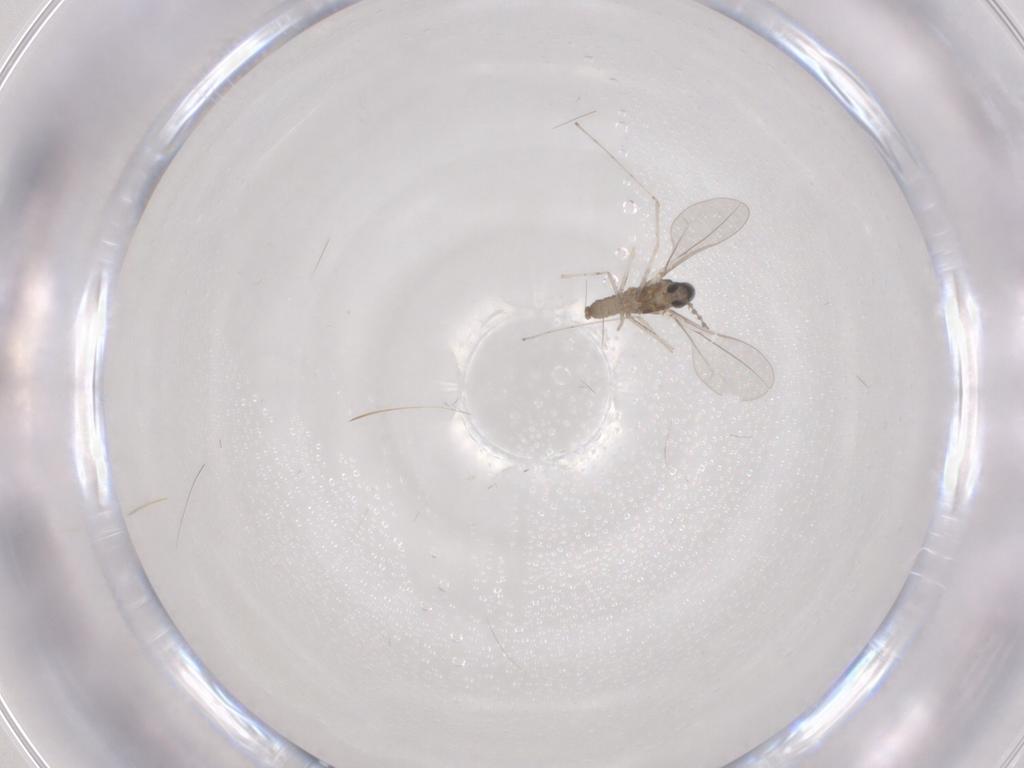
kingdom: Animalia
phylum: Arthropoda
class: Insecta
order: Diptera
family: Cecidomyiidae
